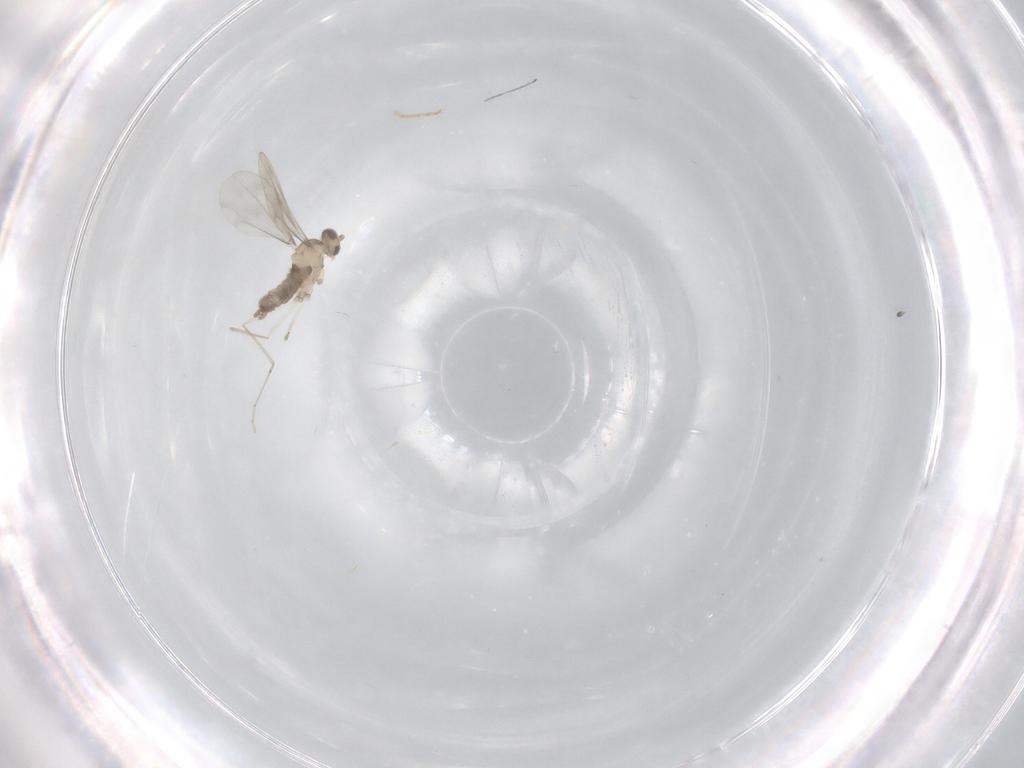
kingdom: Animalia
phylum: Arthropoda
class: Insecta
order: Diptera
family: Cecidomyiidae
